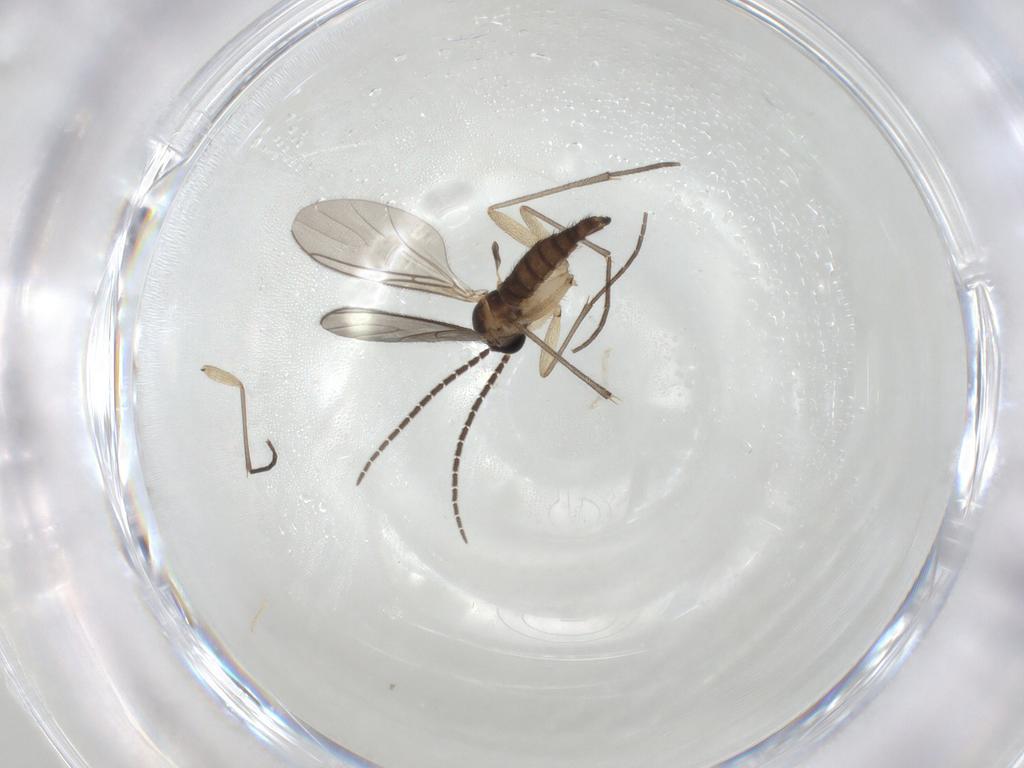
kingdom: Animalia
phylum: Arthropoda
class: Insecta
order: Diptera
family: Sciaridae
